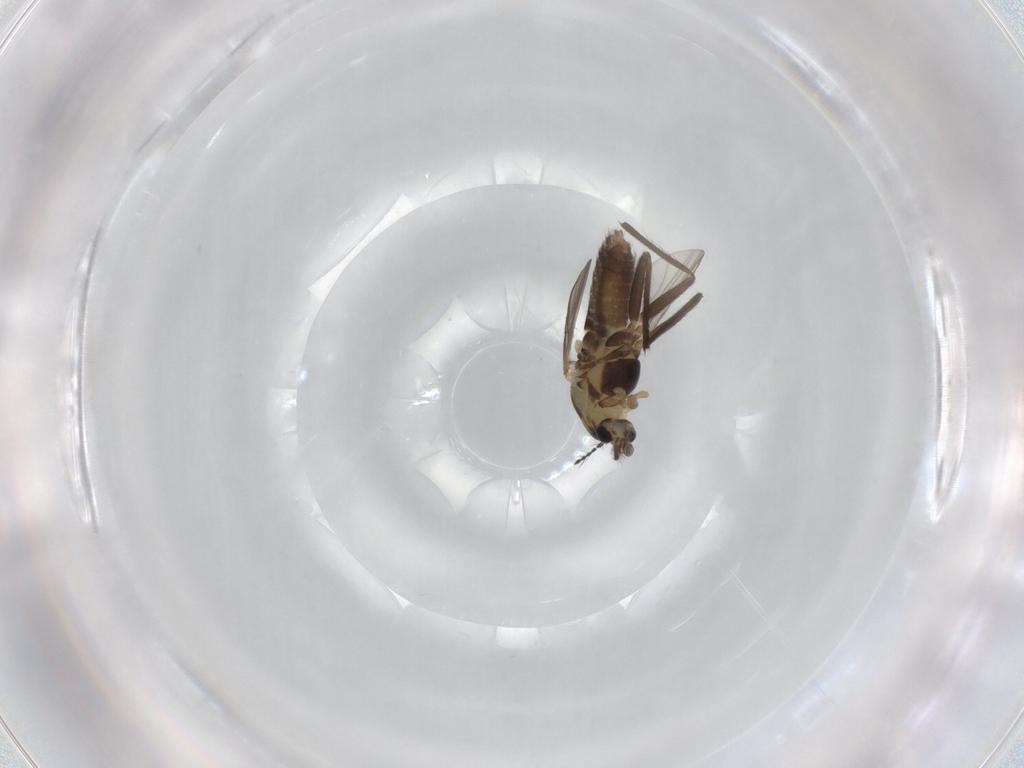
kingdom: Animalia
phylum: Arthropoda
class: Insecta
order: Diptera
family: Chironomidae
